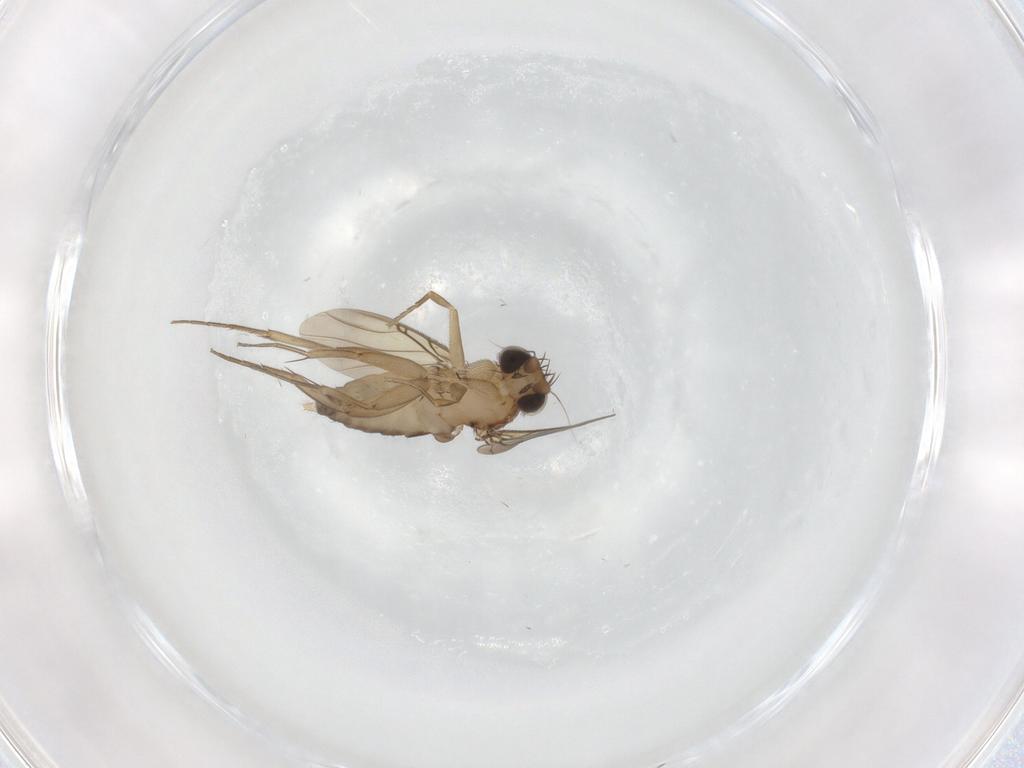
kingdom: Animalia
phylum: Arthropoda
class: Insecta
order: Diptera
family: Phoridae
